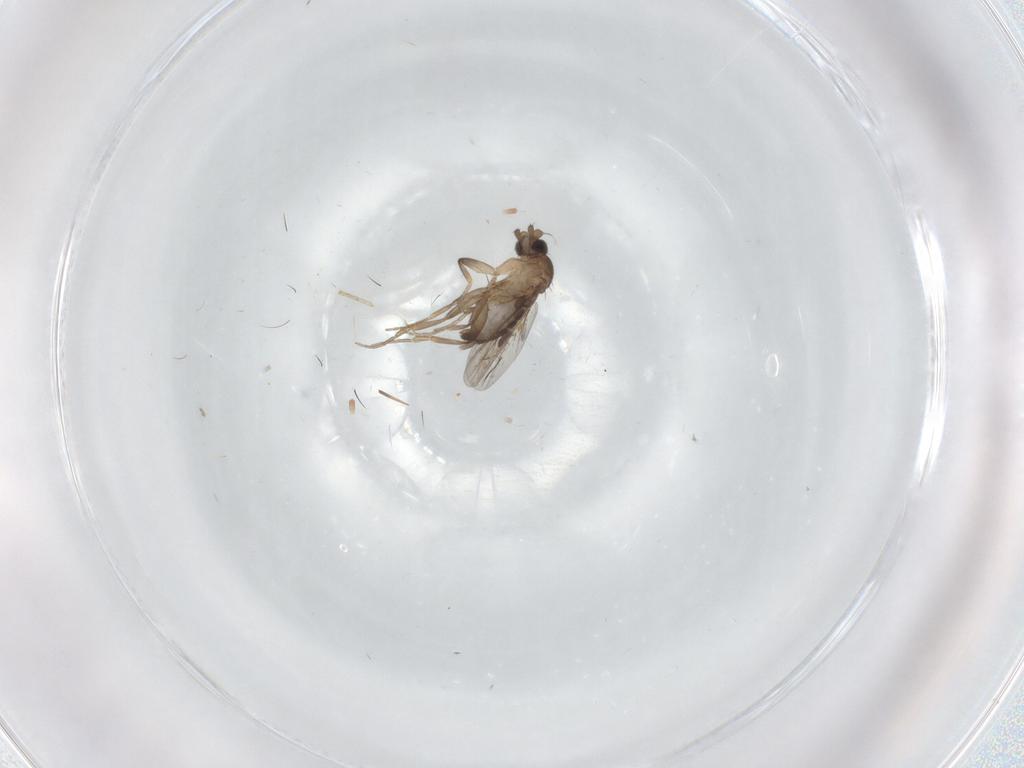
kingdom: Animalia
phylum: Arthropoda
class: Insecta
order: Diptera
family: Phoridae
